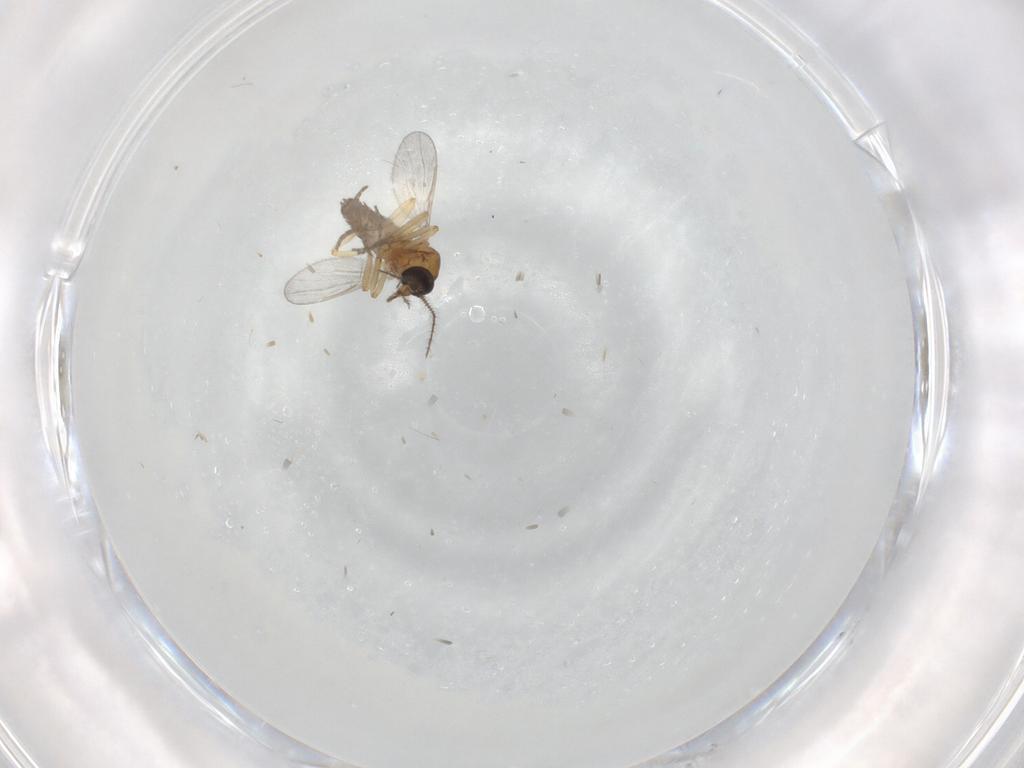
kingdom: Animalia
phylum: Arthropoda
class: Insecta
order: Diptera
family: Ceratopogonidae
